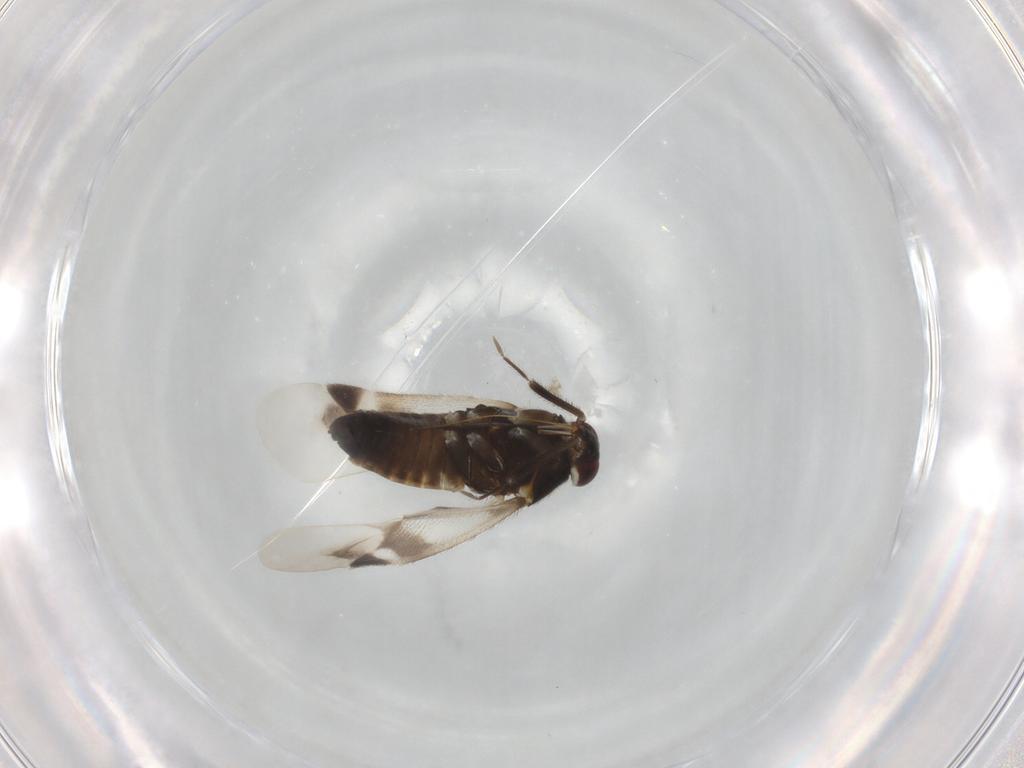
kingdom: Animalia
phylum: Arthropoda
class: Insecta
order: Hemiptera
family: Miridae
